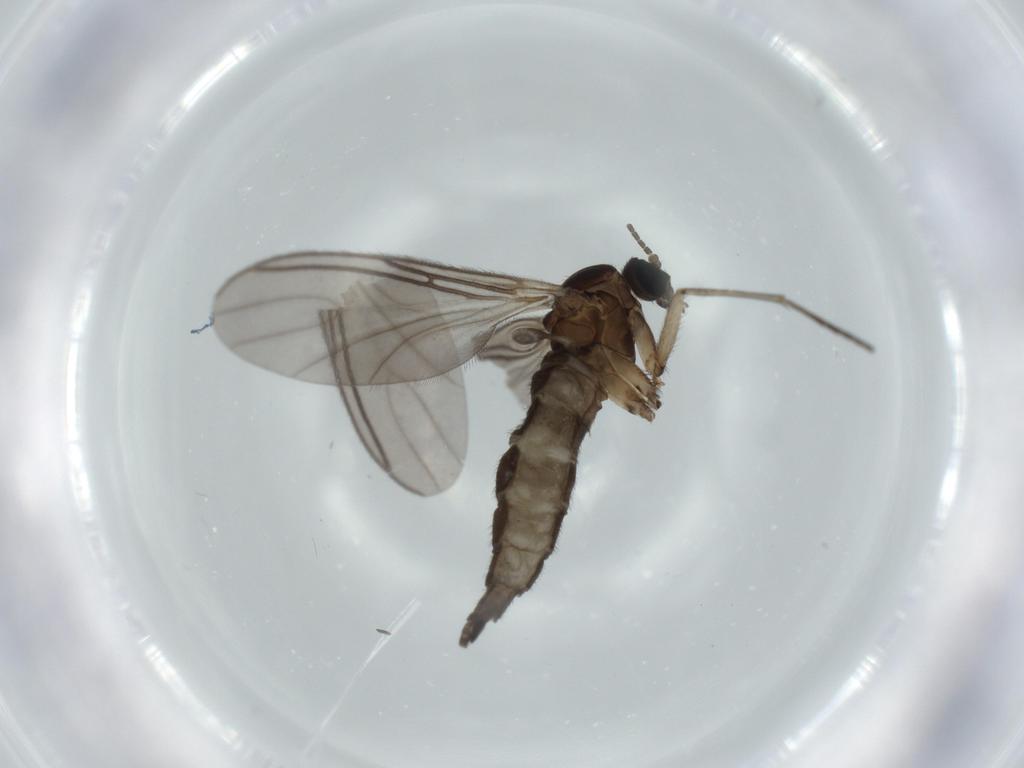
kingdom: Animalia
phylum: Arthropoda
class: Insecta
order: Diptera
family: Sciaridae
